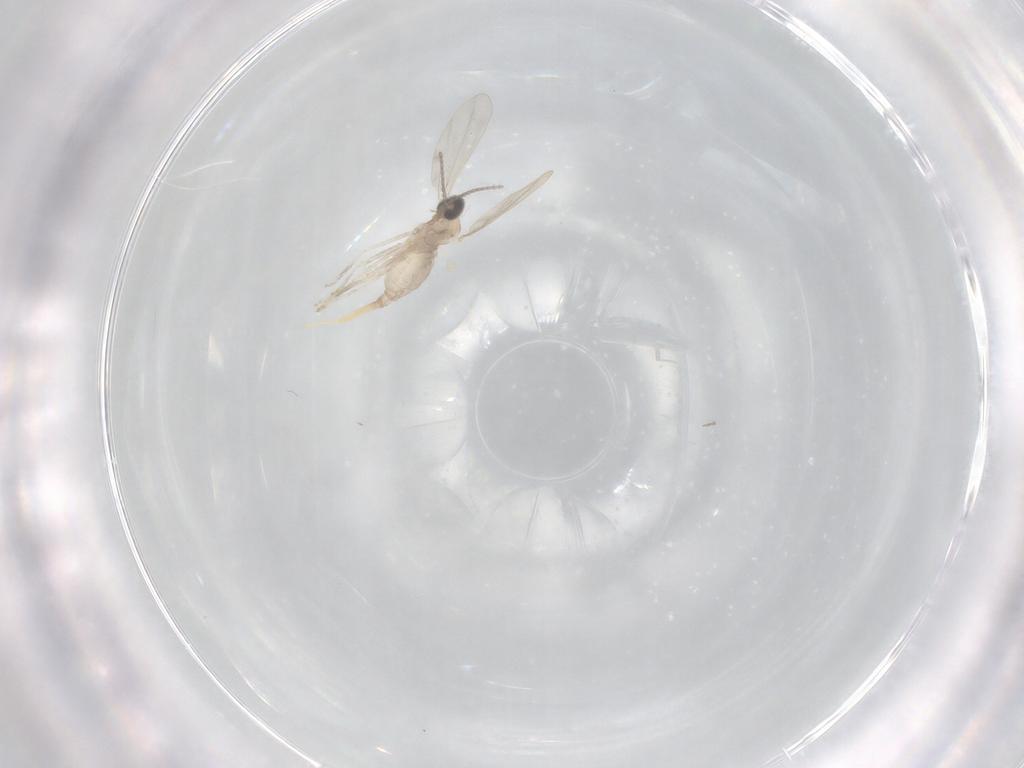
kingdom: Animalia
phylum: Arthropoda
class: Insecta
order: Diptera
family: Cecidomyiidae
